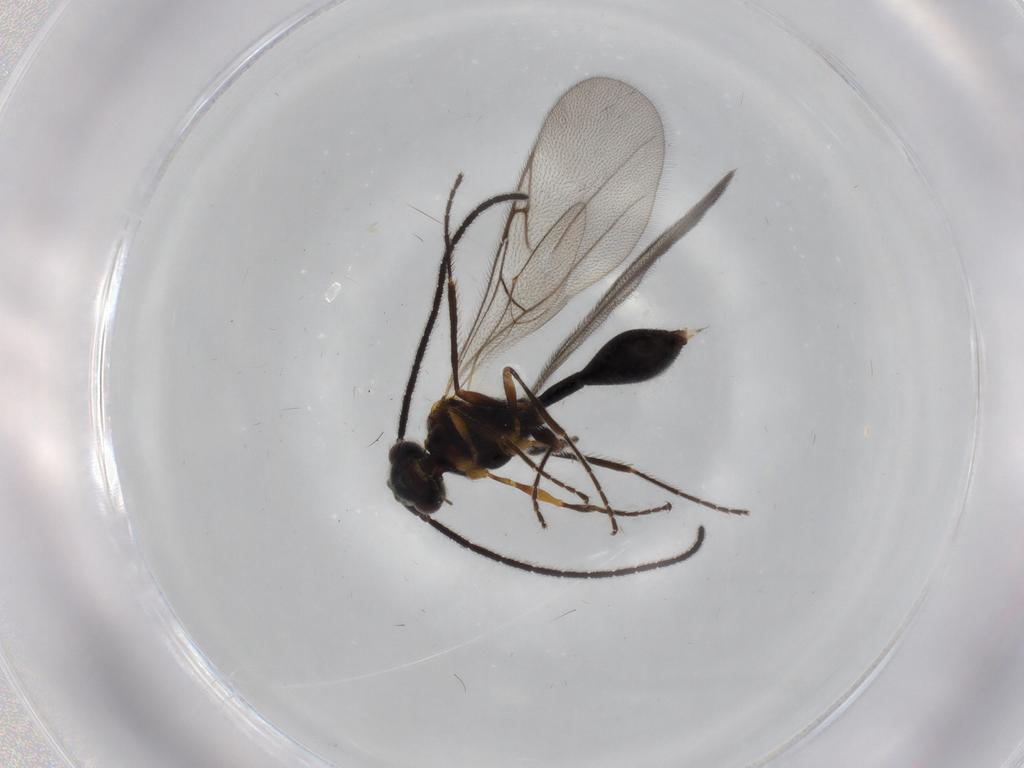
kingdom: Animalia
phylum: Arthropoda
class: Insecta
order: Hymenoptera
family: Diapriidae
